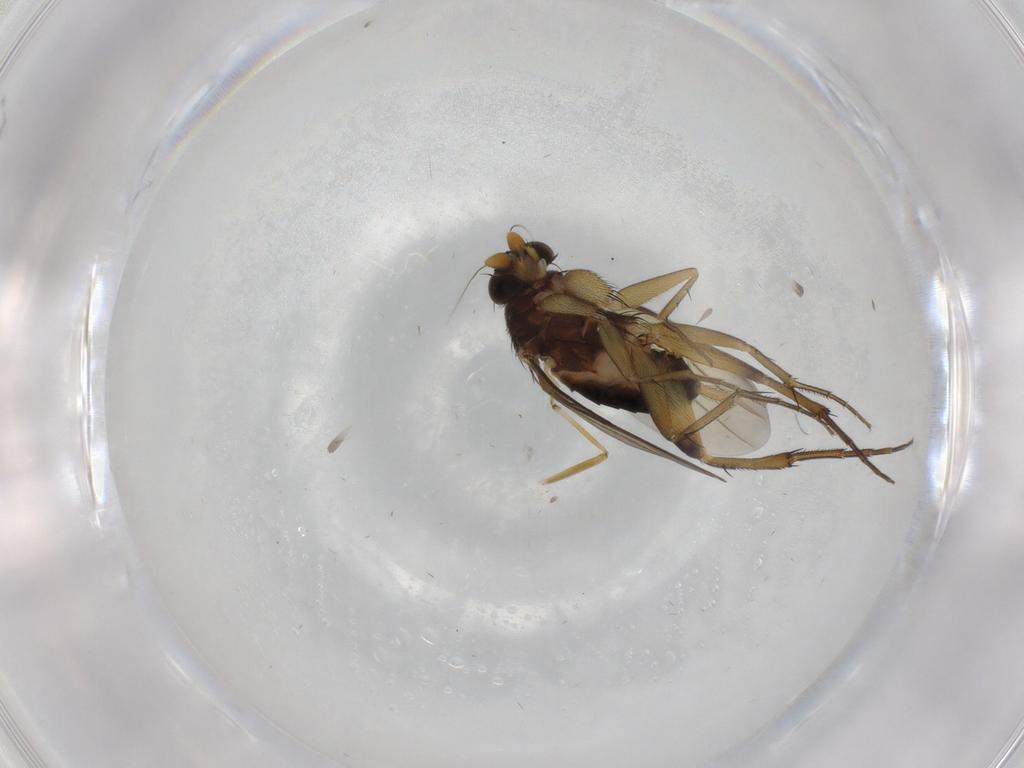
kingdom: Animalia
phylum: Arthropoda
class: Insecta
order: Diptera
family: Phoridae
